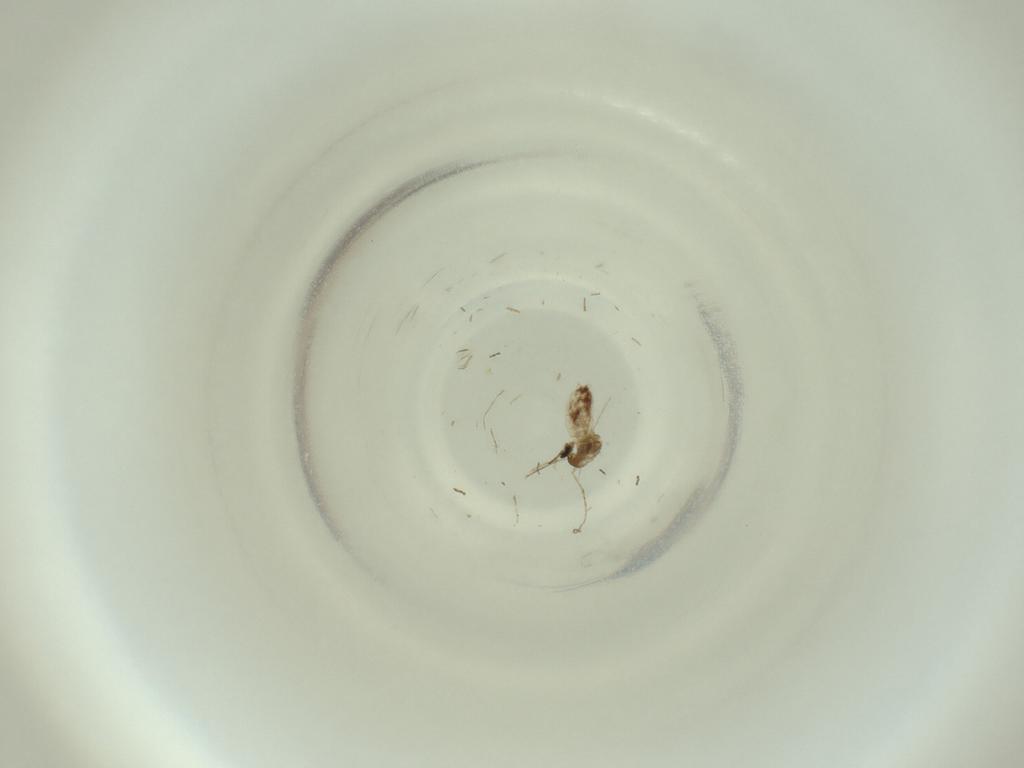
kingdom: Animalia
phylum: Arthropoda
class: Insecta
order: Diptera
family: Cecidomyiidae
